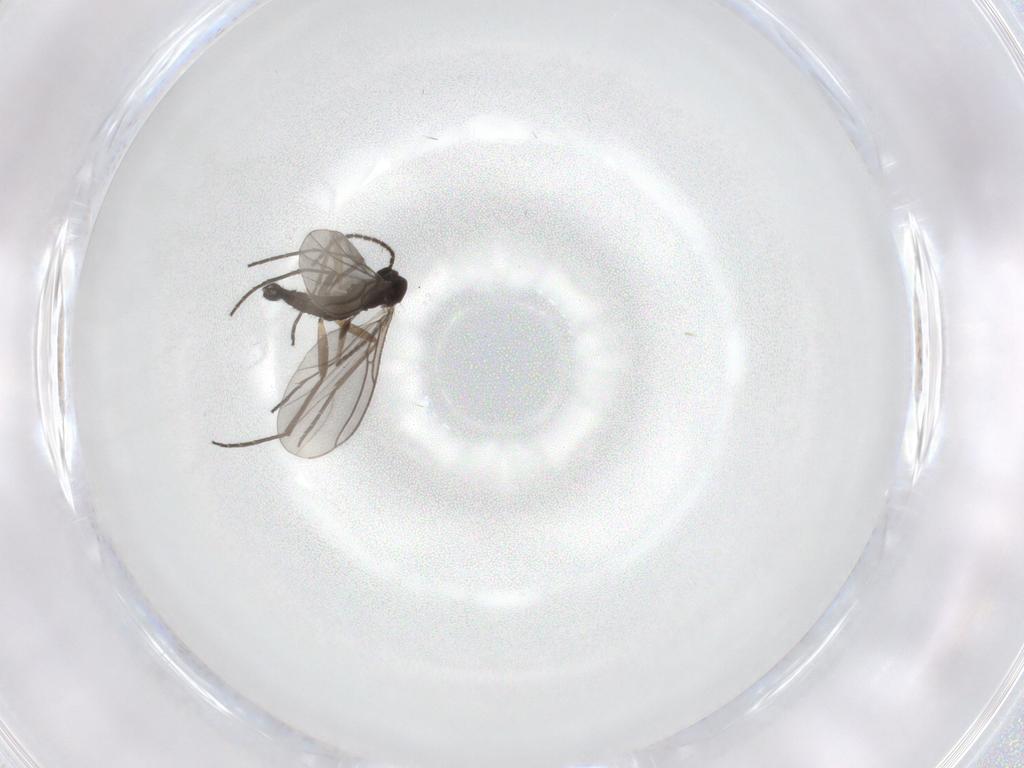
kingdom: Animalia
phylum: Arthropoda
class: Insecta
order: Diptera
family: Sciaridae
